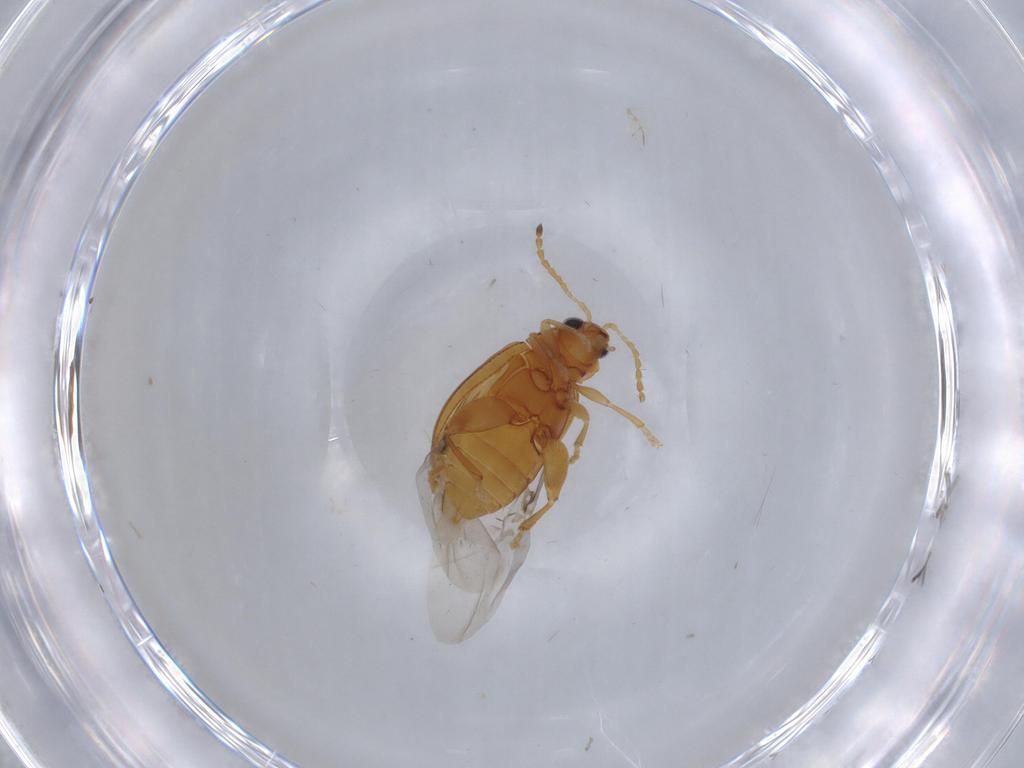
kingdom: Animalia
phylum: Arthropoda
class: Insecta
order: Coleoptera
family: Chrysomelidae
